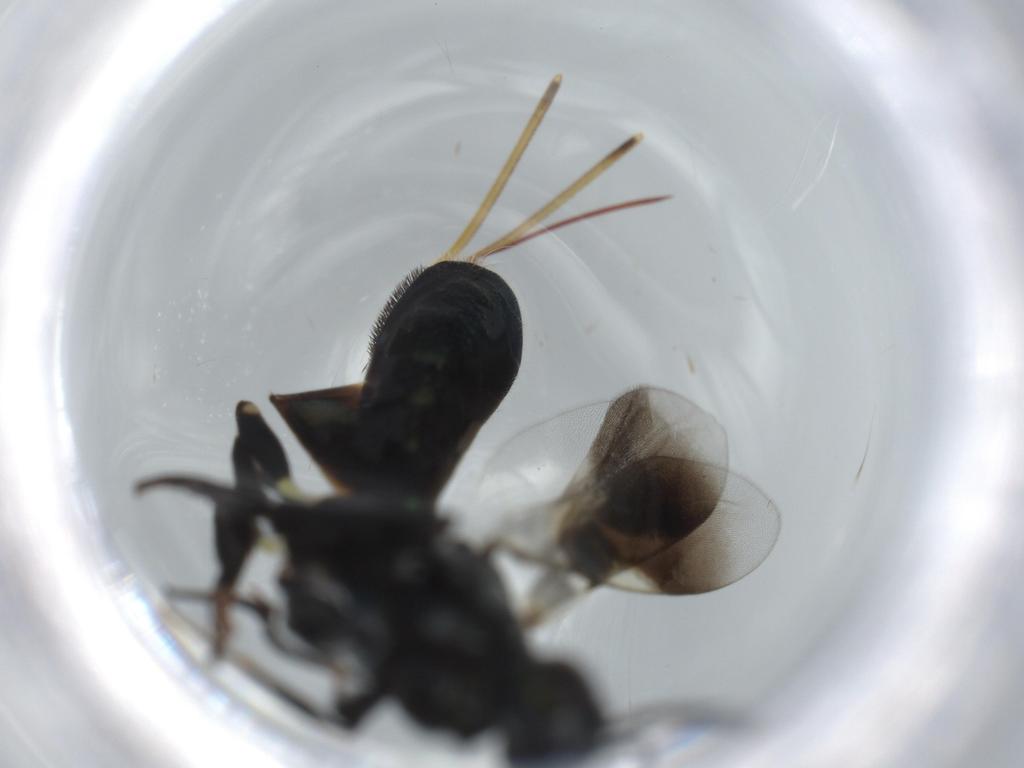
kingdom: Animalia
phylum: Arthropoda
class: Insecta
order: Hymenoptera
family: Trichogrammatidae
